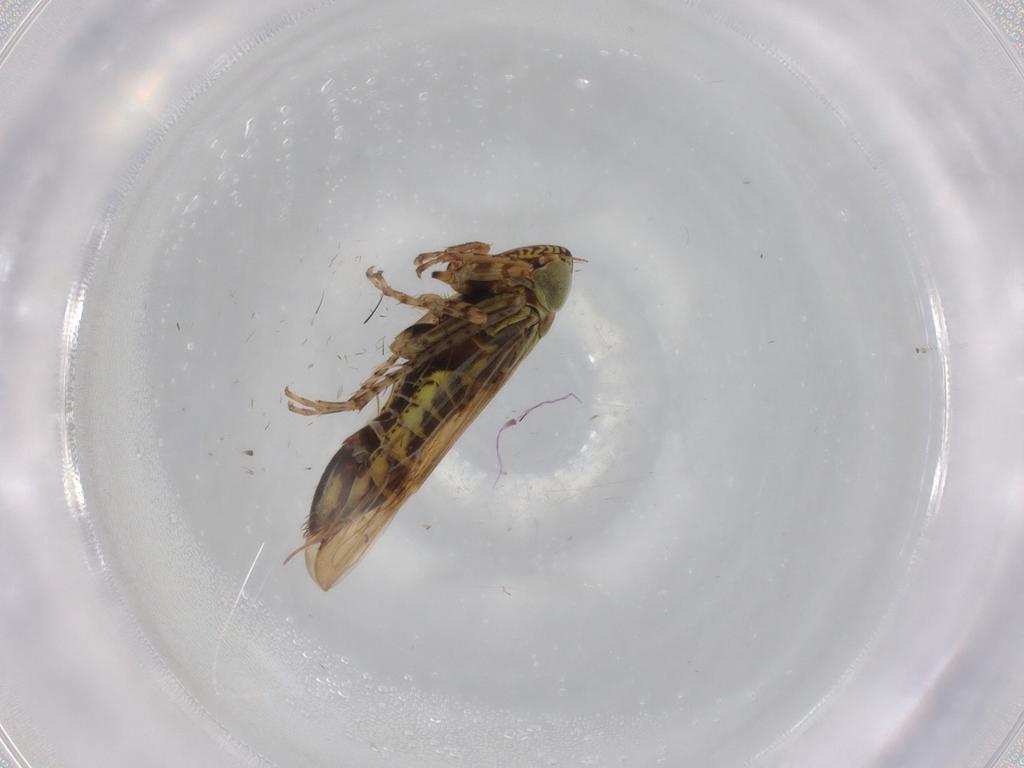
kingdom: Animalia
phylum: Arthropoda
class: Insecta
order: Hemiptera
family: Cicadellidae
